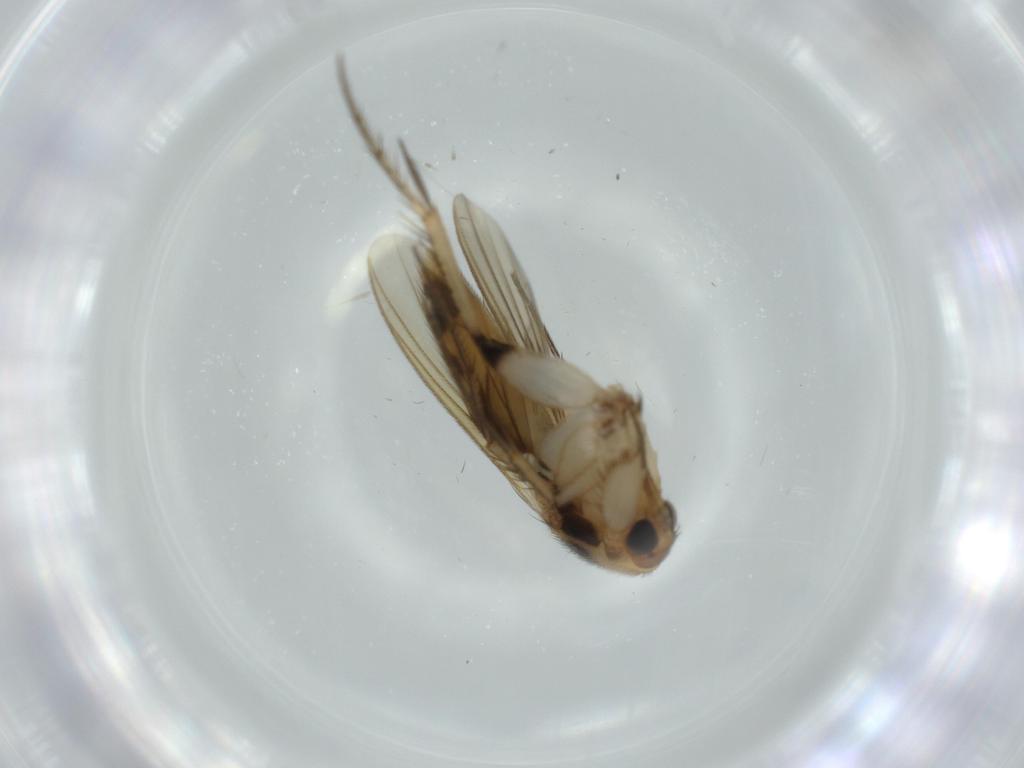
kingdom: Animalia
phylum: Arthropoda
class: Insecta
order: Diptera
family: Mycetophilidae
